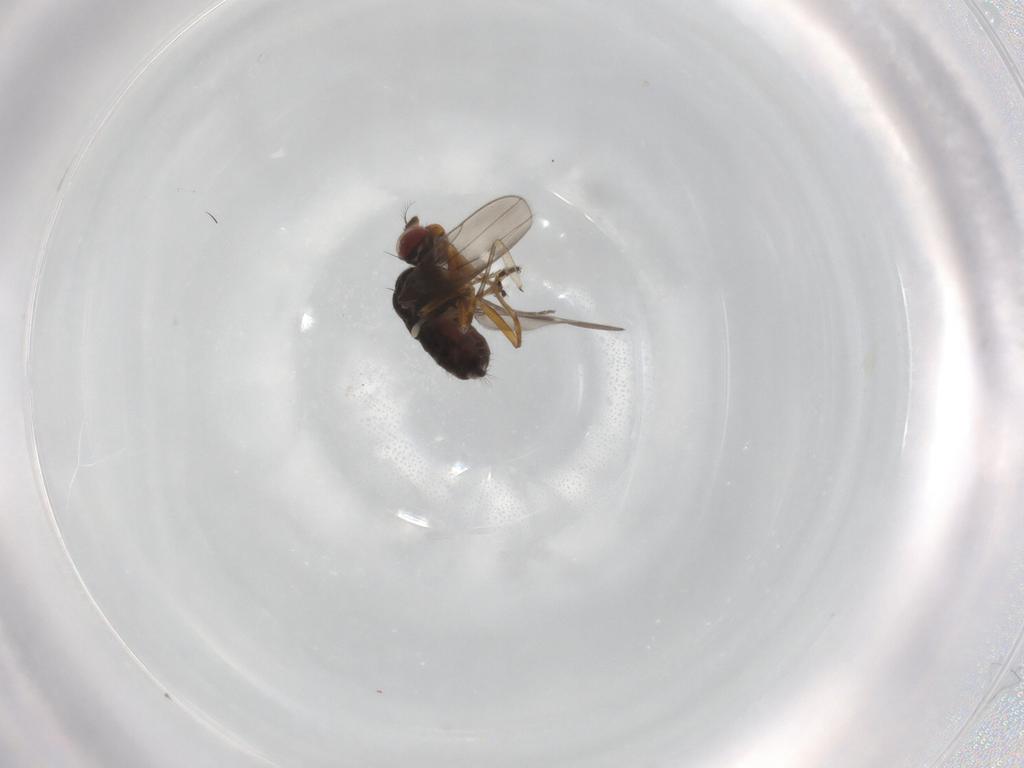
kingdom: Animalia
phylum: Arthropoda
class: Insecta
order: Diptera
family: Ephydridae
